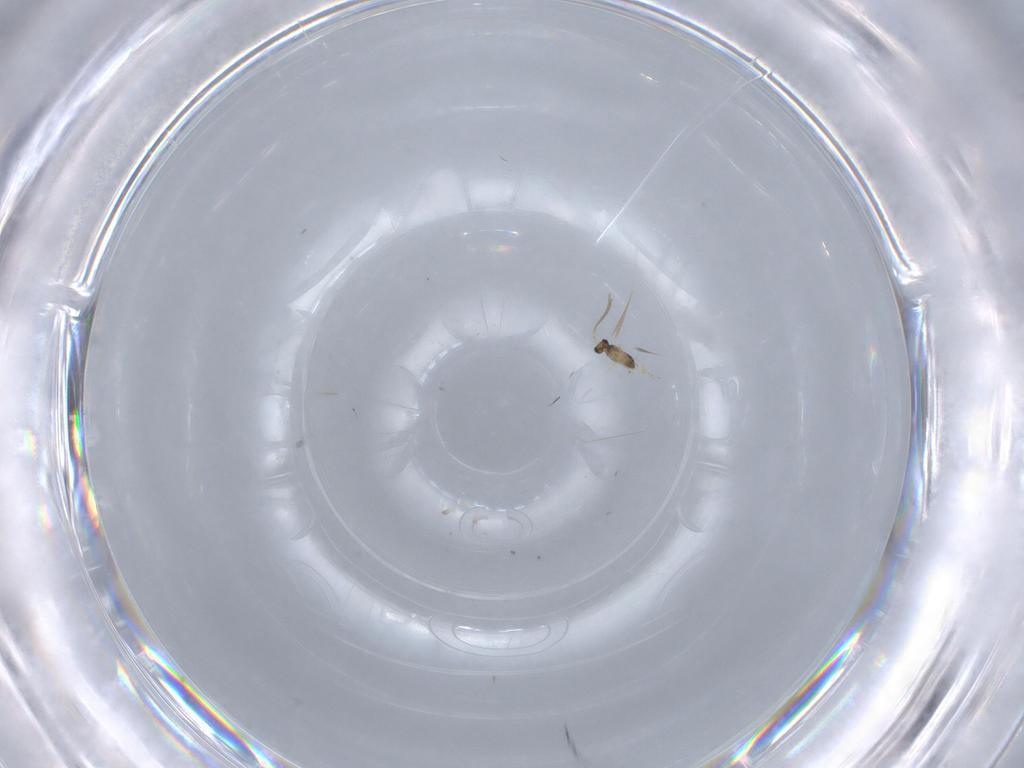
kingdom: Animalia
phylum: Arthropoda
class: Insecta
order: Hymenoptera
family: Mymaridae
